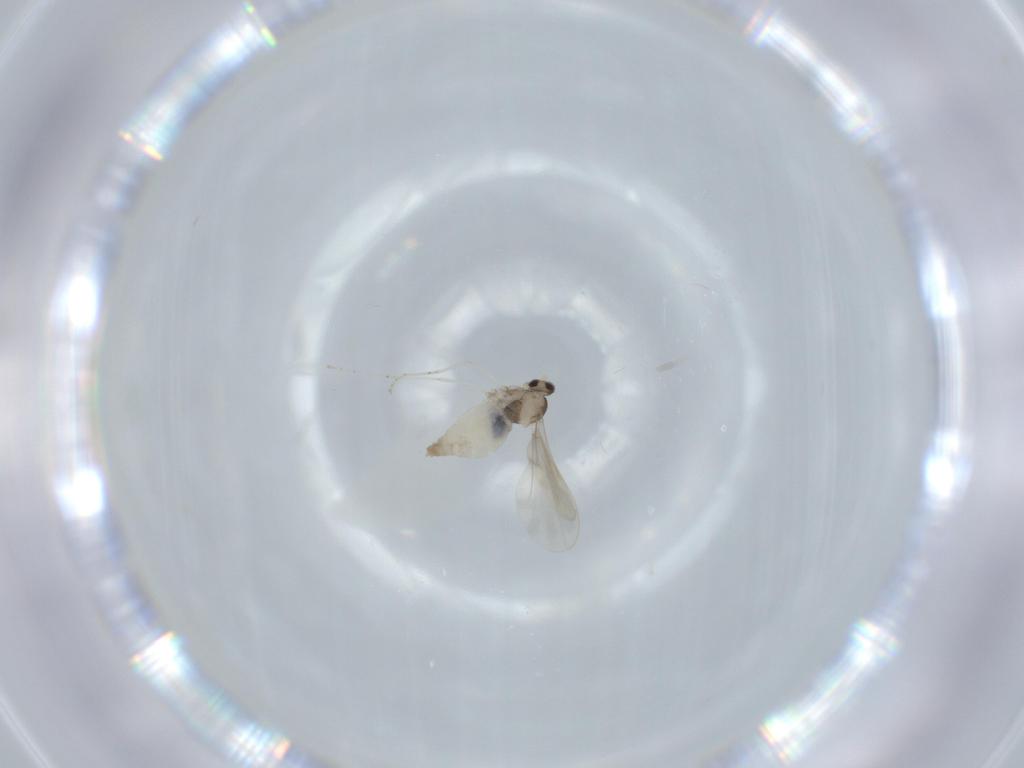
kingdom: Animalia
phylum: Arthropoda
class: Insecta
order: Diptera
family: Cecidomyiidae
